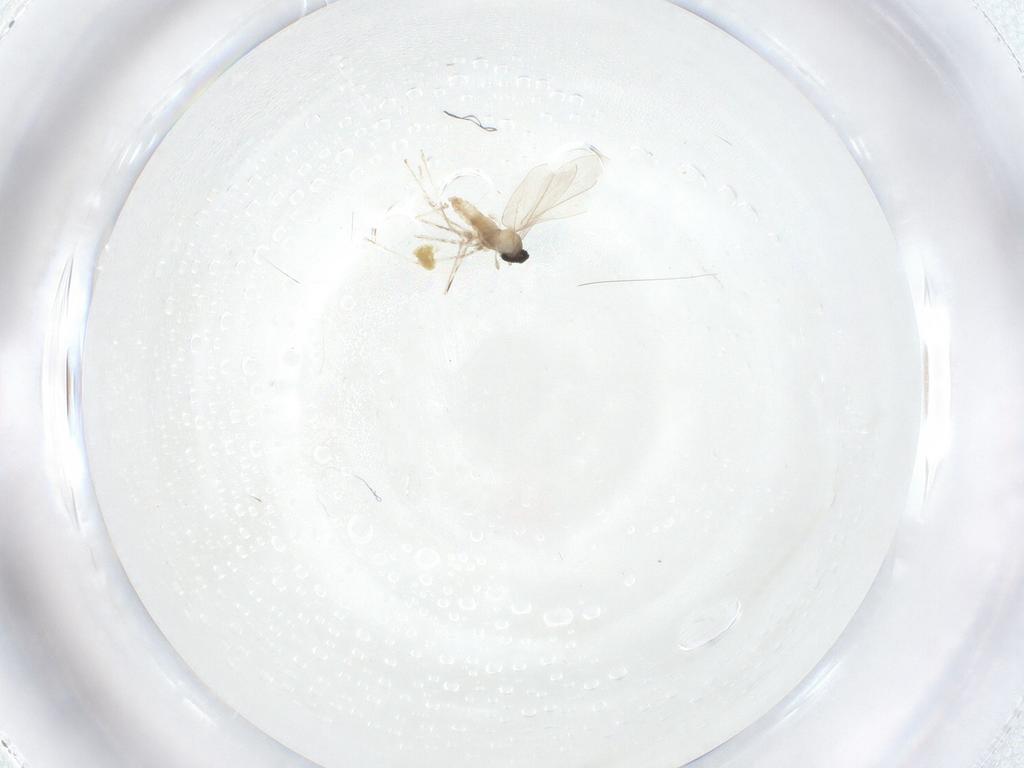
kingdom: Animalia
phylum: Arthropoda
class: Insecta
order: Diptera
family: Cecidomyiidae
